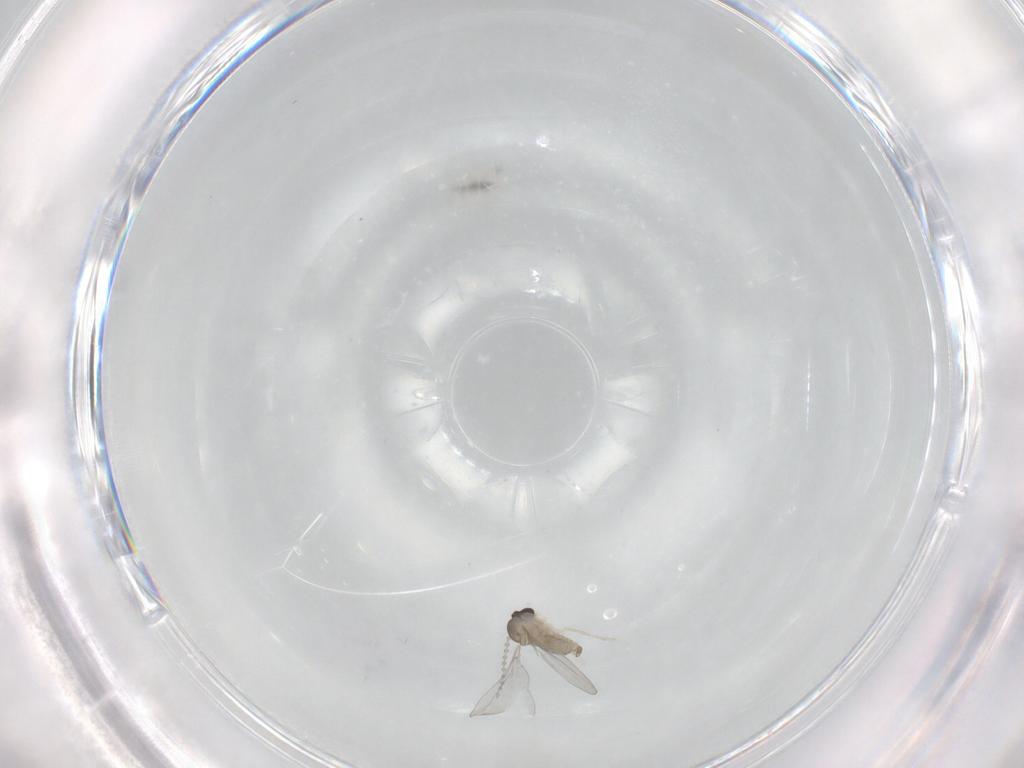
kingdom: Animalia
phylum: Arthropoda
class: Insecta
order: Diptera
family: Cecidomyiidae
